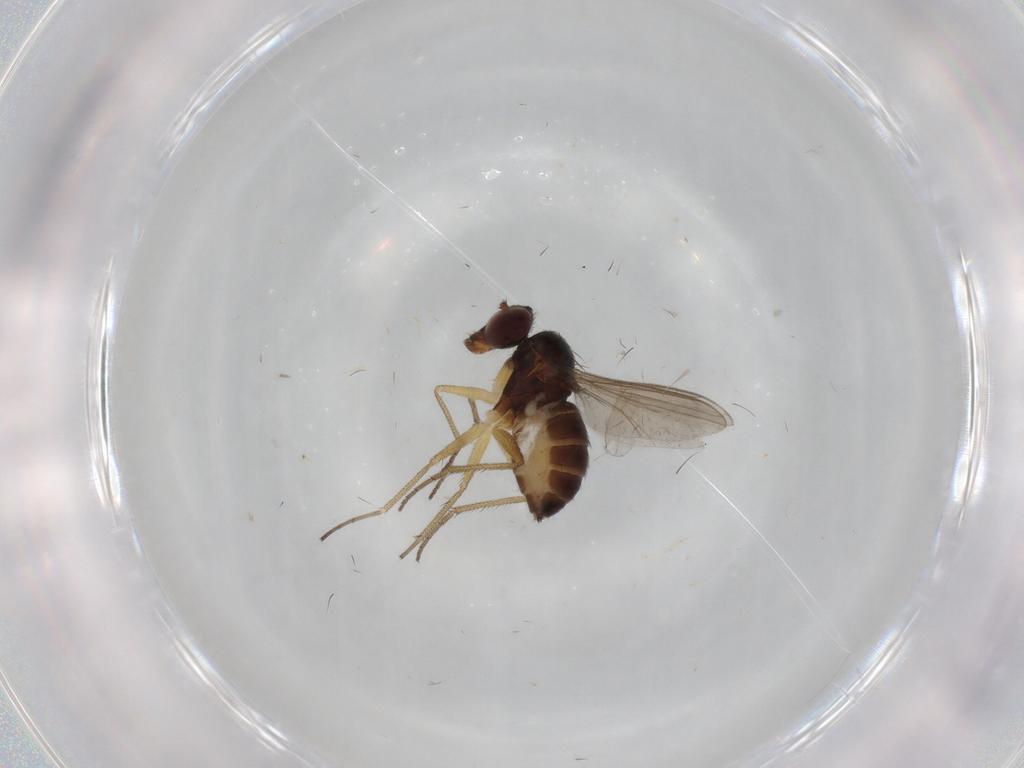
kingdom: Animalia
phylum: Arthropoda
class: Insecta
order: Diptera
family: Dolichopodidae
